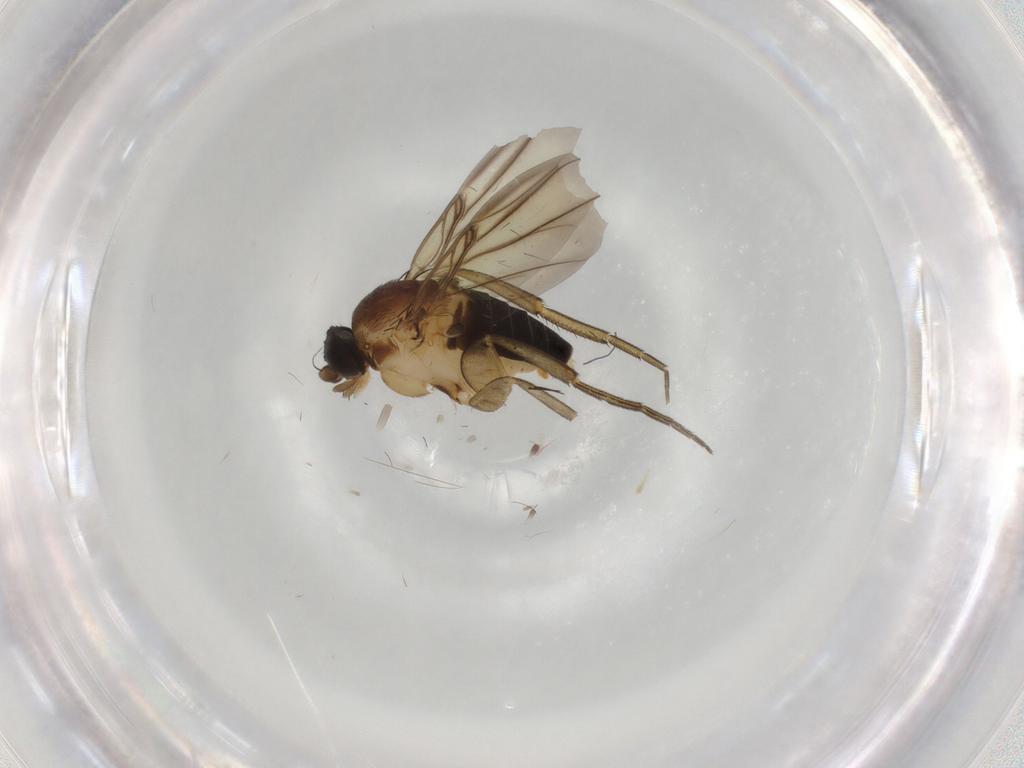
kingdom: Animalia
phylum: Arthropoda
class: Insecta
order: Diptera
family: Phoridae
